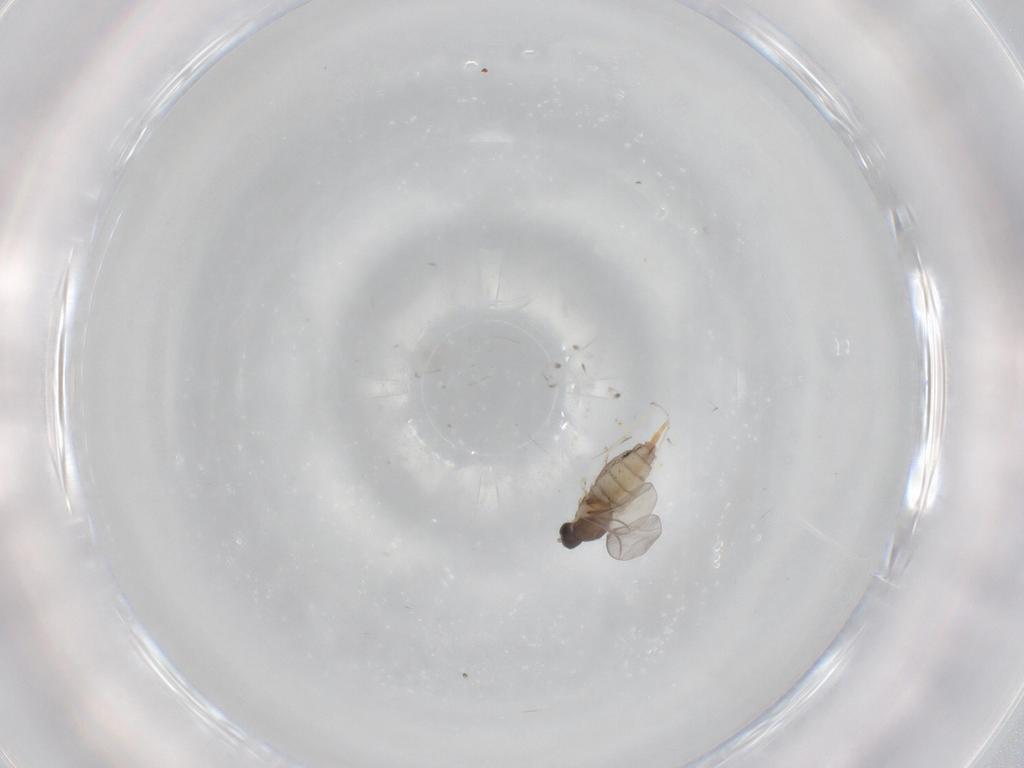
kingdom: Animalia
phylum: Arthropoda
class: Insecta
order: Diptera
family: Cecidomyiidae
